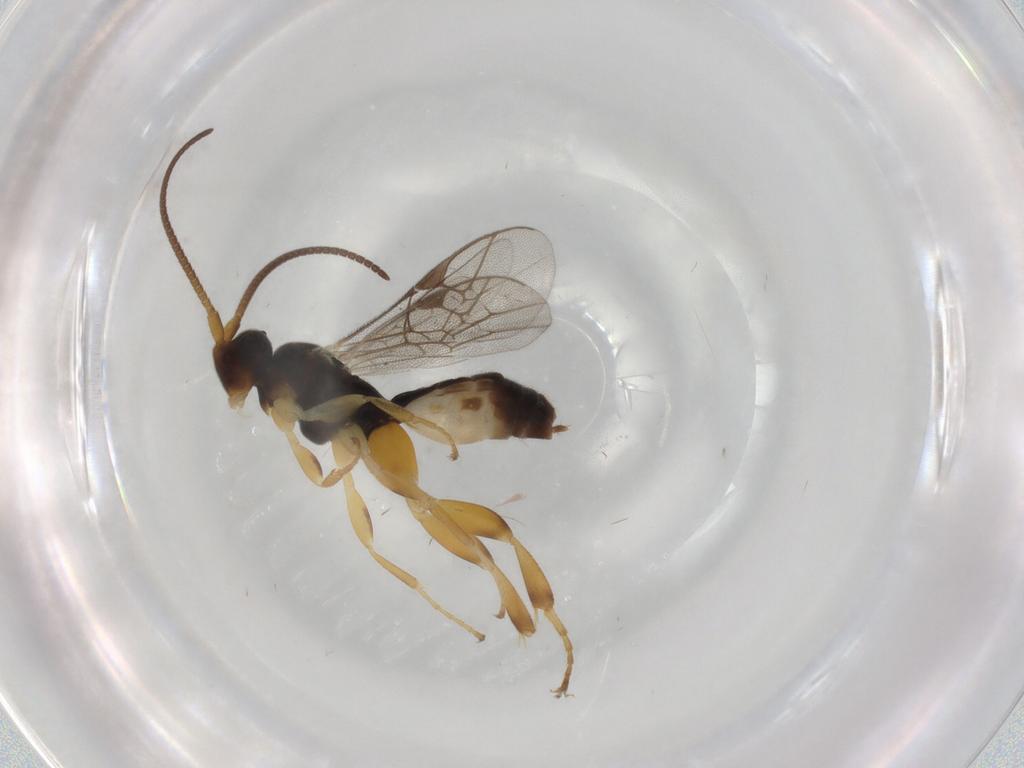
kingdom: Animalia
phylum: Arthropoda
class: Insecta
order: Hymenoptera
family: Ichneumonidae
